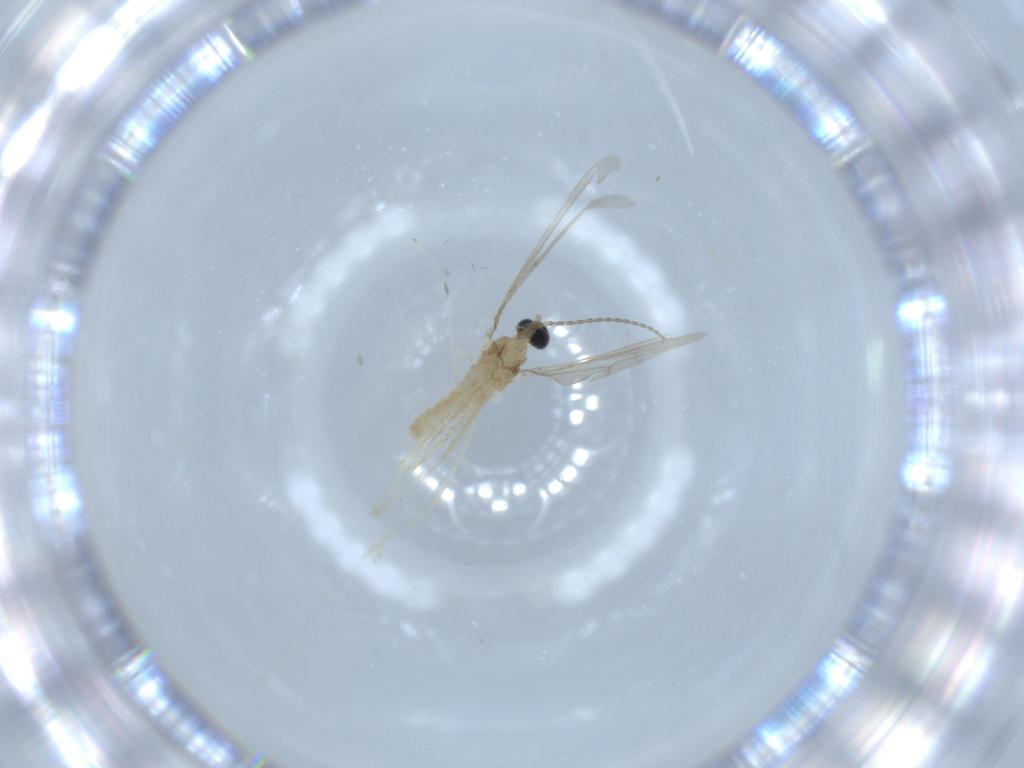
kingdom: Animalia
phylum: Arthropoda
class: Insecta
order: Diptera
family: Cecidomyiidae
